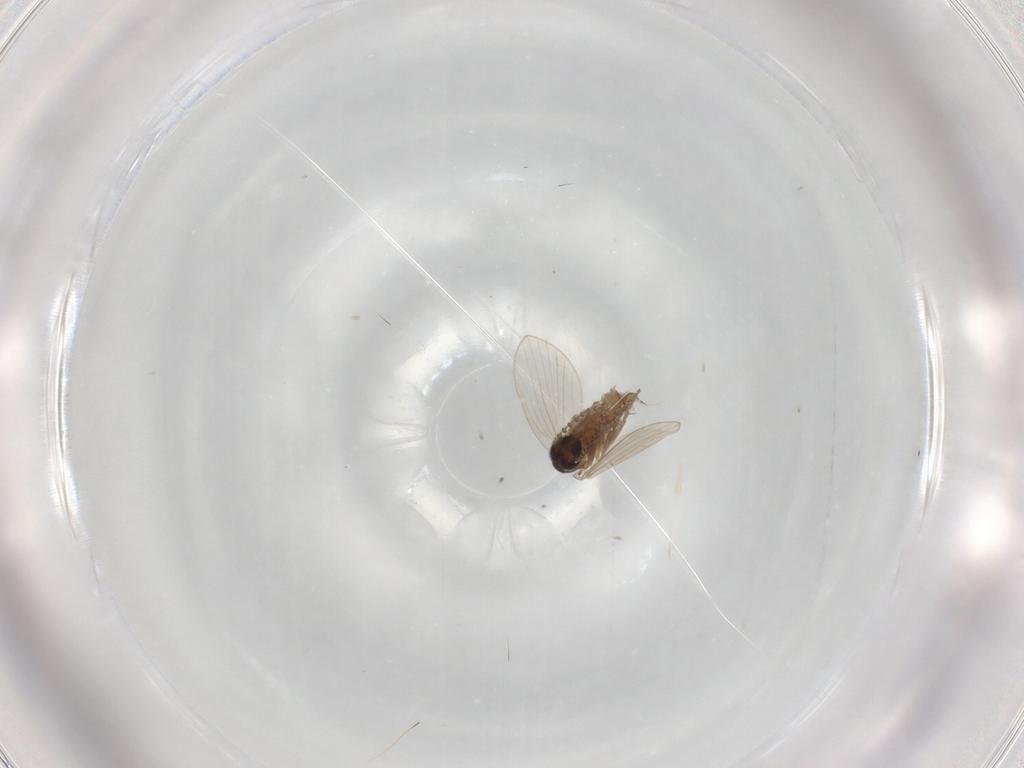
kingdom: Animalia
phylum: Arthropoda
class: Insecta
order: Diptera
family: Psychodidae
